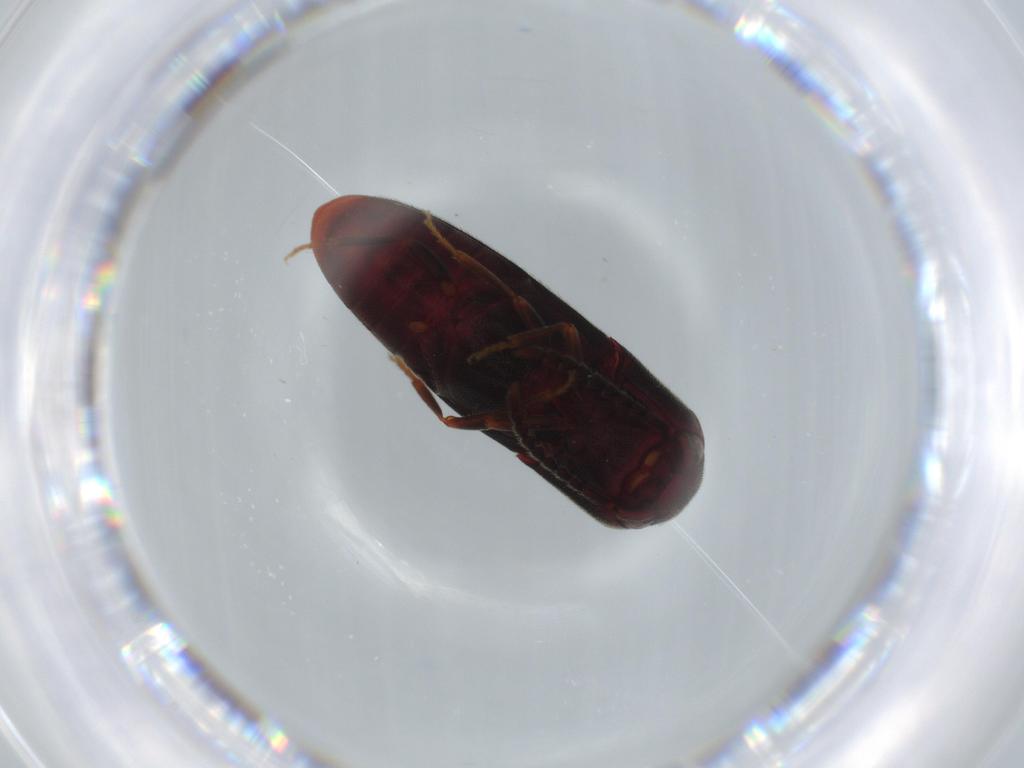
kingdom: Animalia
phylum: Arthropoda
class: Insecta
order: Coleoptera
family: Eucnemidae
